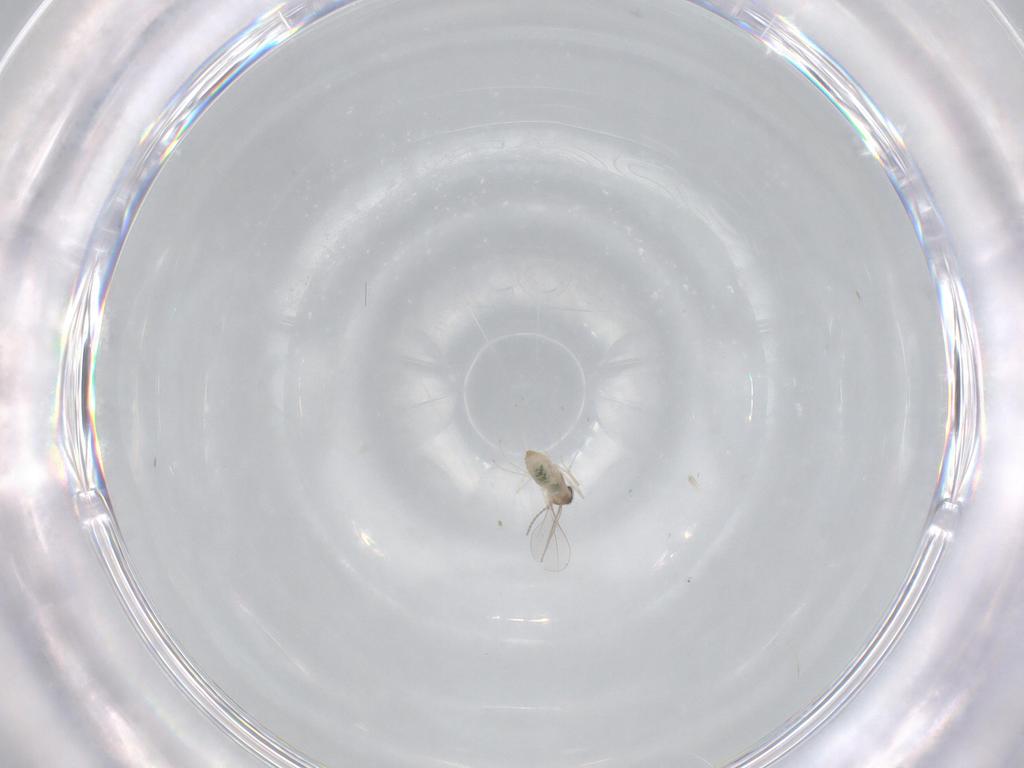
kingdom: Animalia
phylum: Arthropoda
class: Insecta
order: Diptera
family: Cecidomyiidae
